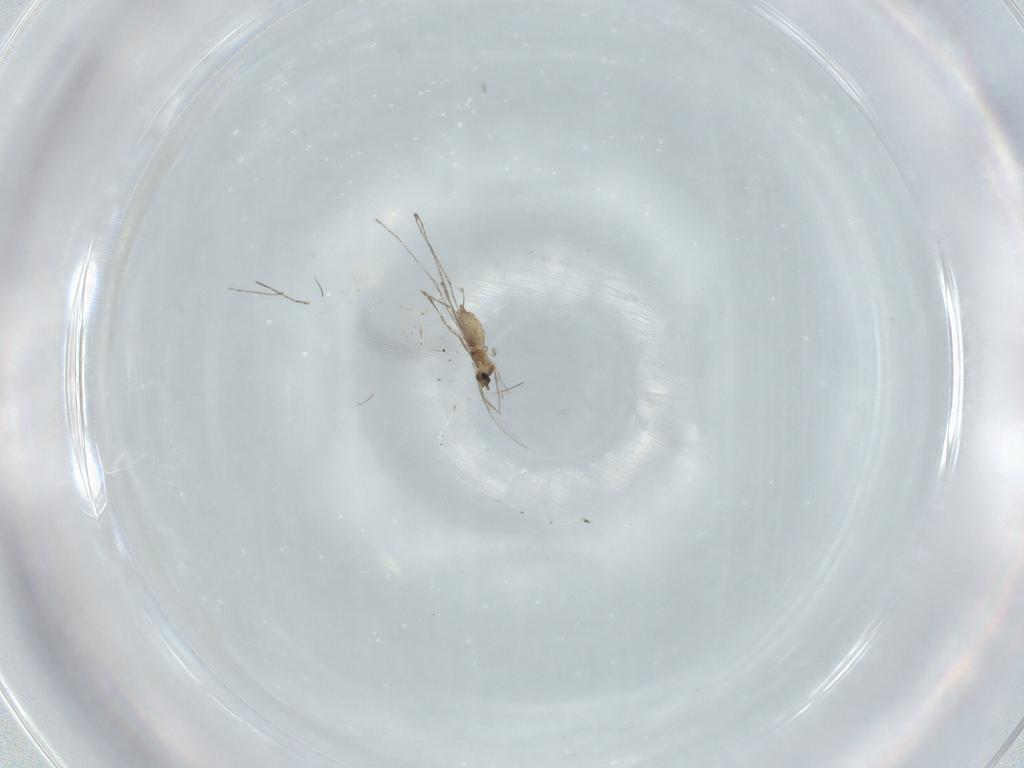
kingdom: Animalia
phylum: Arthropoda
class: Insecta
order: Diptera
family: Cecidomyiidae
